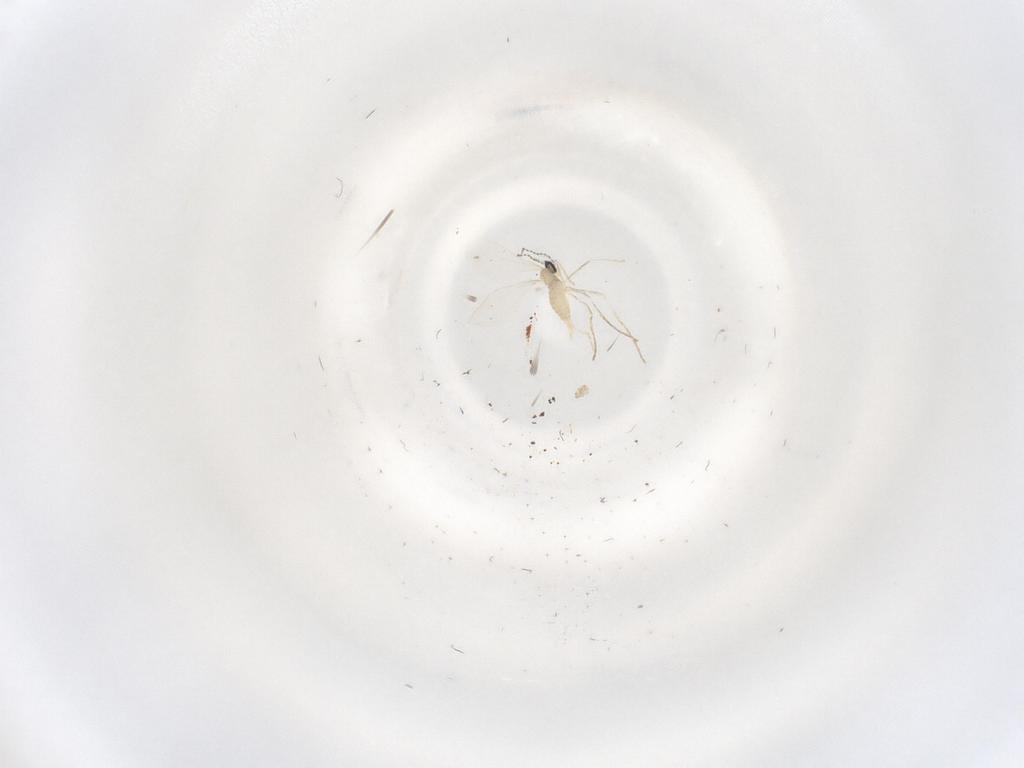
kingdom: Animalia
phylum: Arthropoda
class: Insecta
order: Diptera
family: Cecidomyiidae
